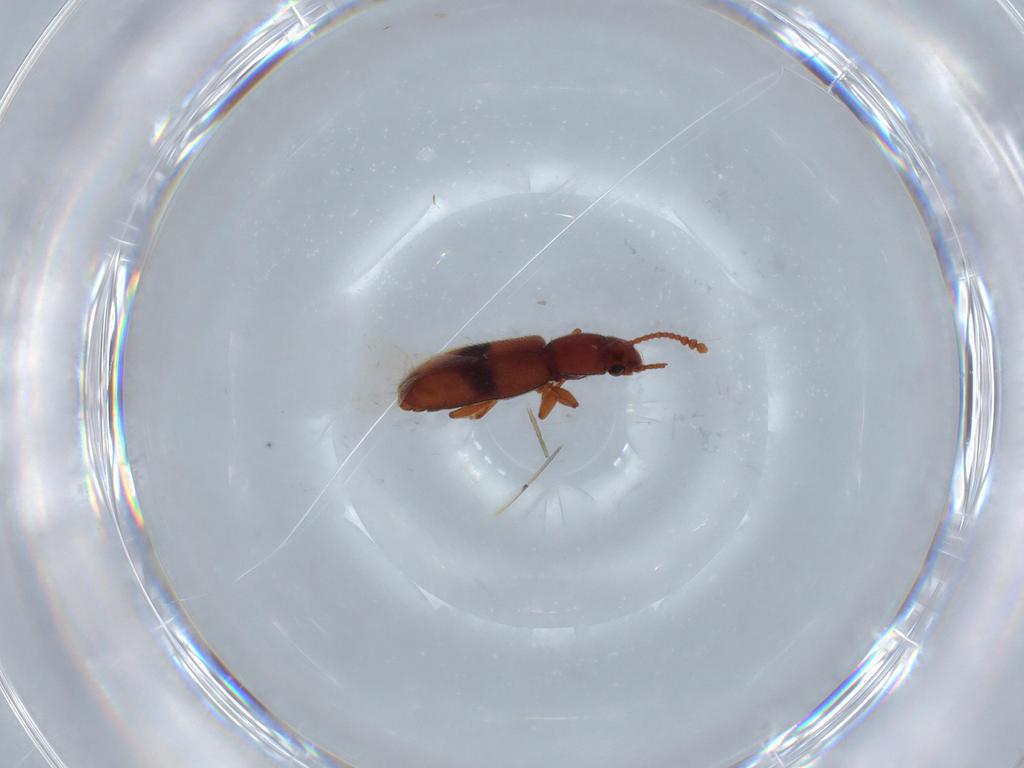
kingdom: Animalia
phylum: Arthropoda
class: Insecta
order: Coleoptera
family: Silvanidae
